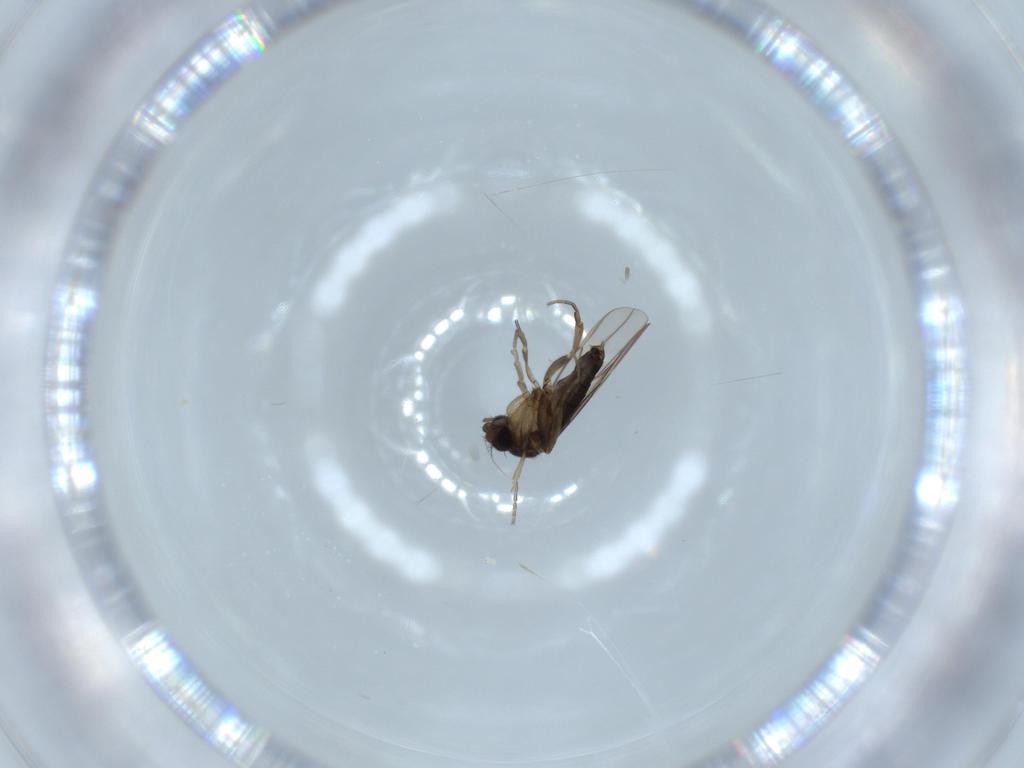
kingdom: Animalia
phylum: Arthropoda
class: Insecta
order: Diptera
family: Phoridae
